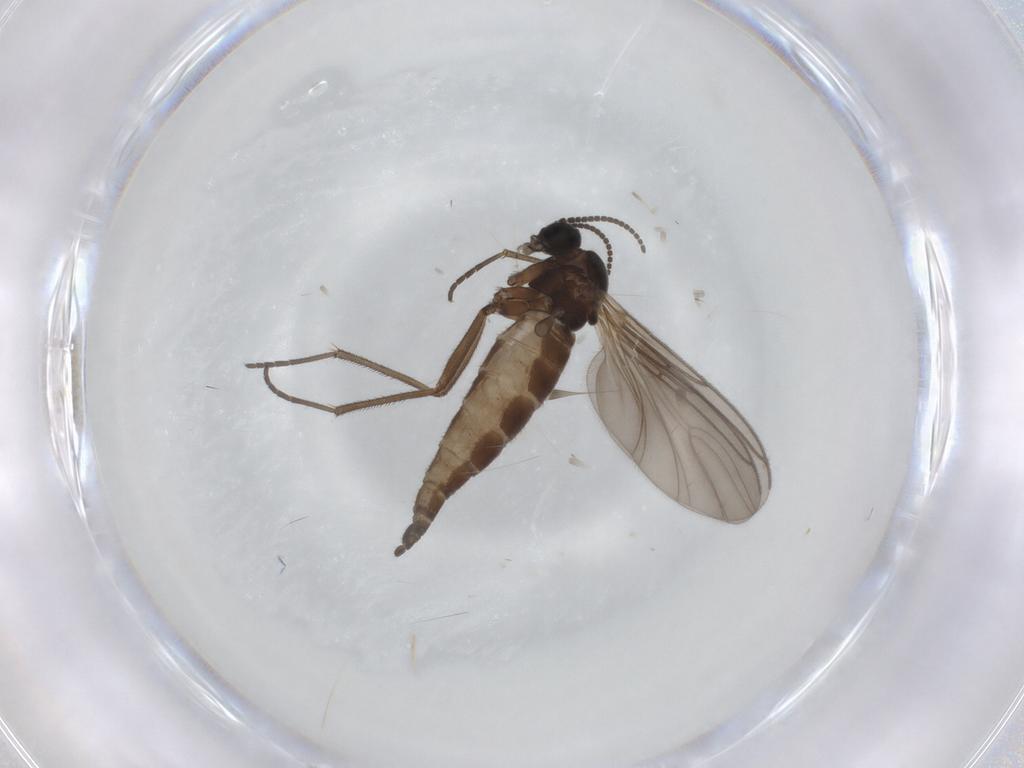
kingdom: Animalia
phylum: Arthropoda
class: Insecta
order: Diptera
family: Sciaridae
